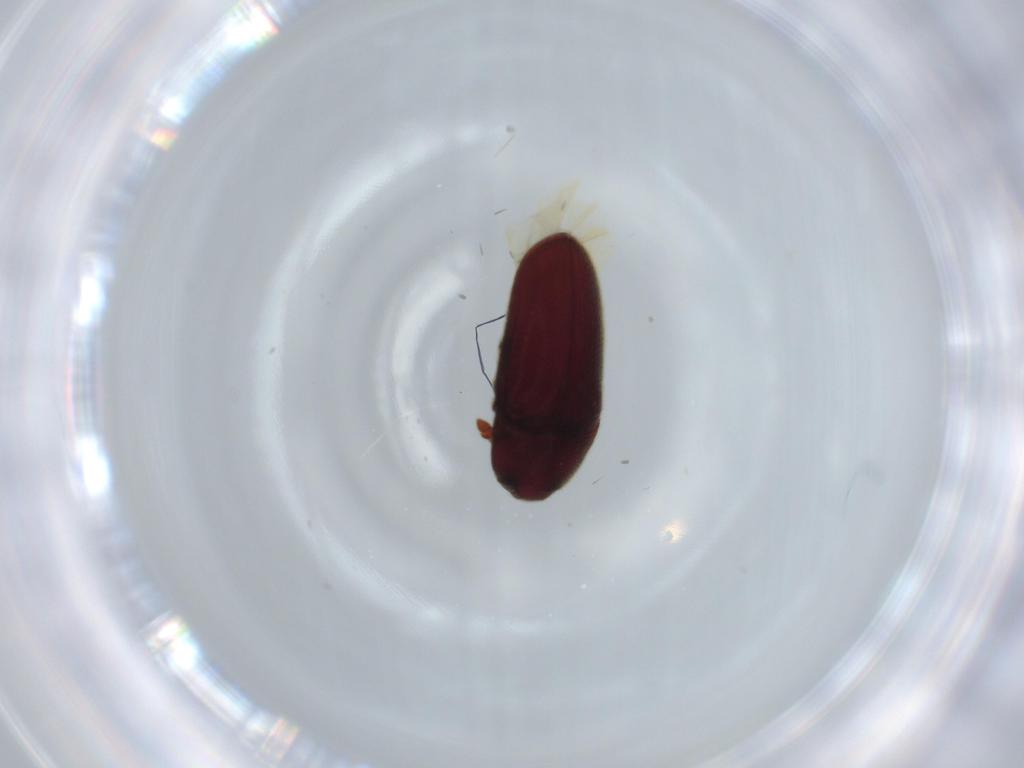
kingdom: Animalia
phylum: Arthropoda
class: Insecta
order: Coleoptera
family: Throscidae
